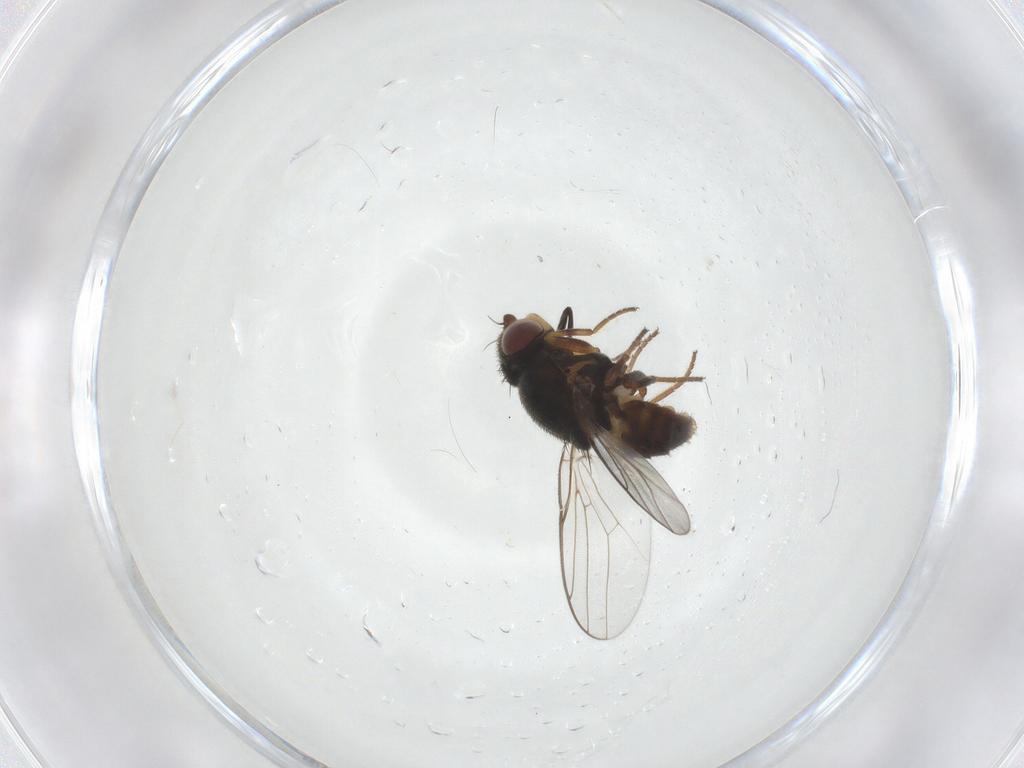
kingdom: Animalia
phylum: Arthropoda
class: Insecta
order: Diptera
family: Chloropidae
